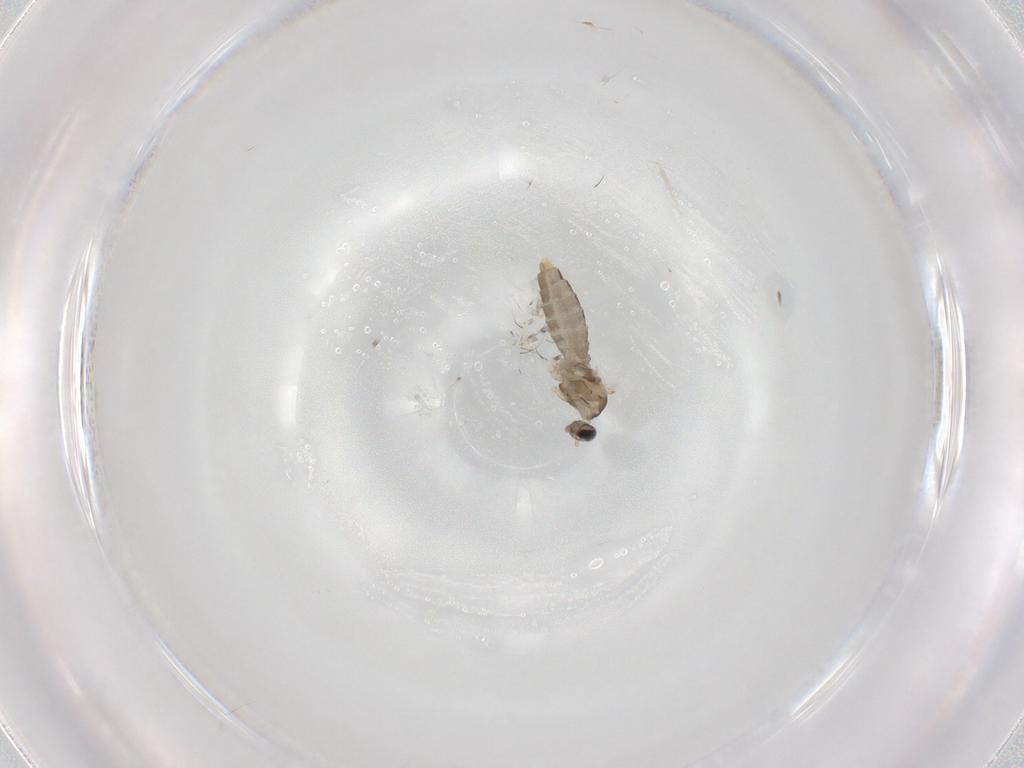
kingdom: Animalia
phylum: Arthropoda
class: Insecta
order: Diptera
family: Cecidomyiidae
